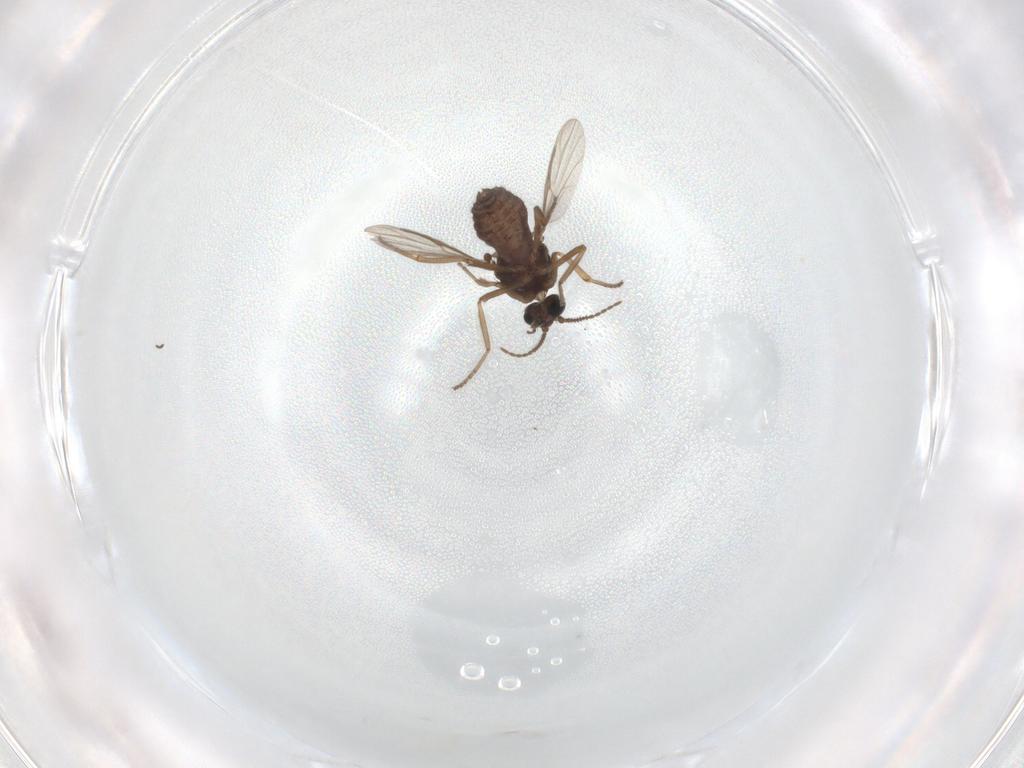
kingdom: Animalia
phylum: Arthropoda
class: Insecta
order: Diptera
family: Ceratopogonidae
